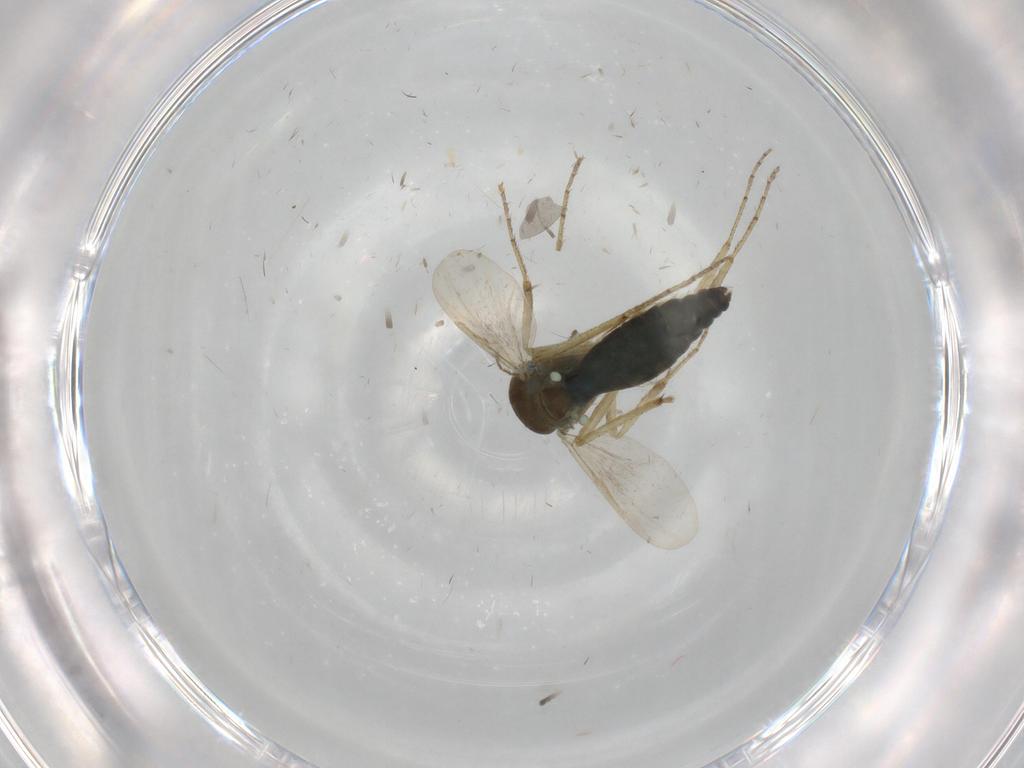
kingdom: Animalia
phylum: Arthropoda
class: Insecta
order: Diptera
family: Ceratopogonidae
